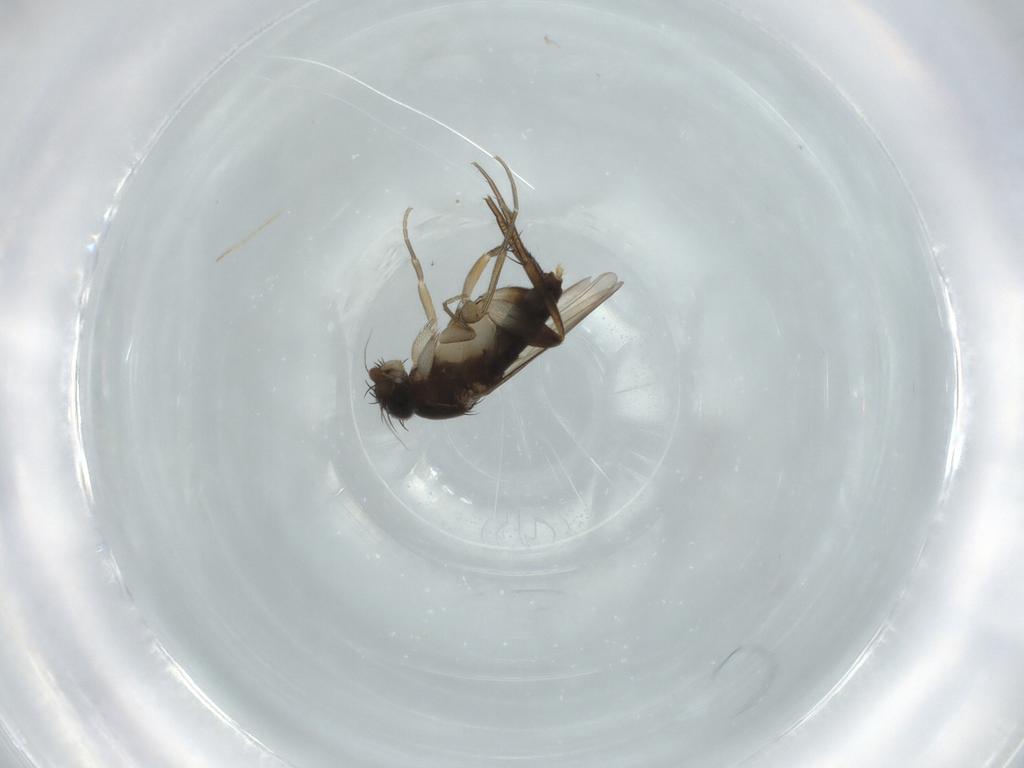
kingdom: Animalia
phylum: Arthropoda
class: Insecta
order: Diptera
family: Phoridae
